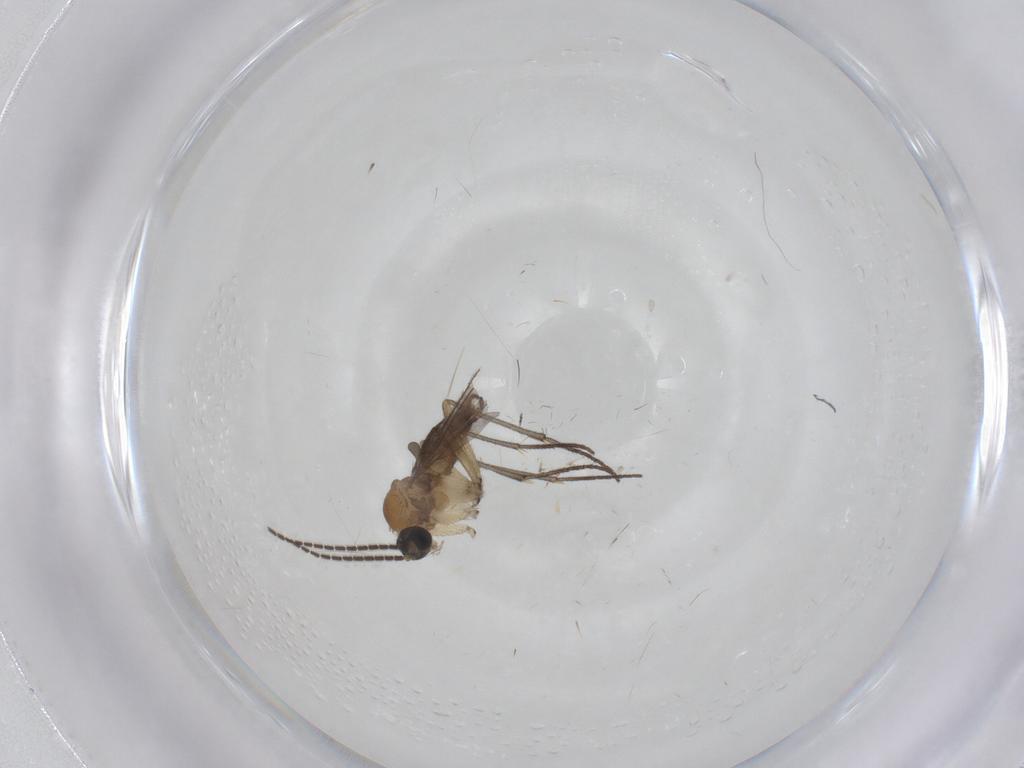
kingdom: Animalia
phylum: Arthropoda
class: Insecta
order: Diptera
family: Sciaridae
